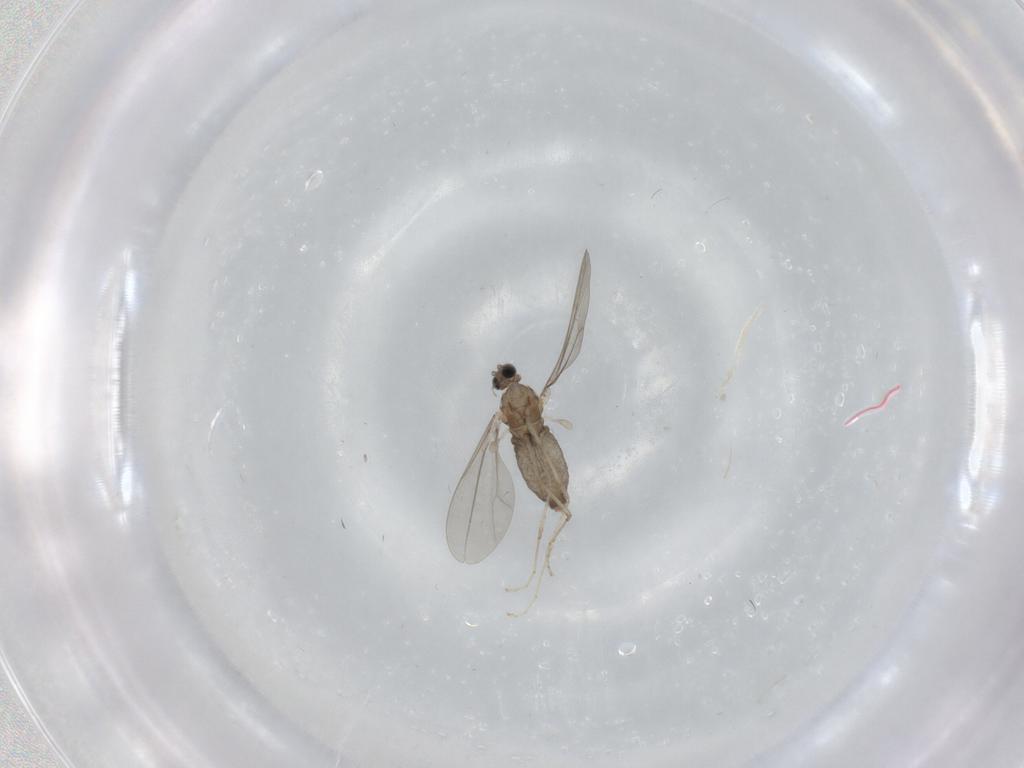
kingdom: Animalia
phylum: Arthropoda
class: Insecta
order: Diptera
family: Cecidomyiidae
